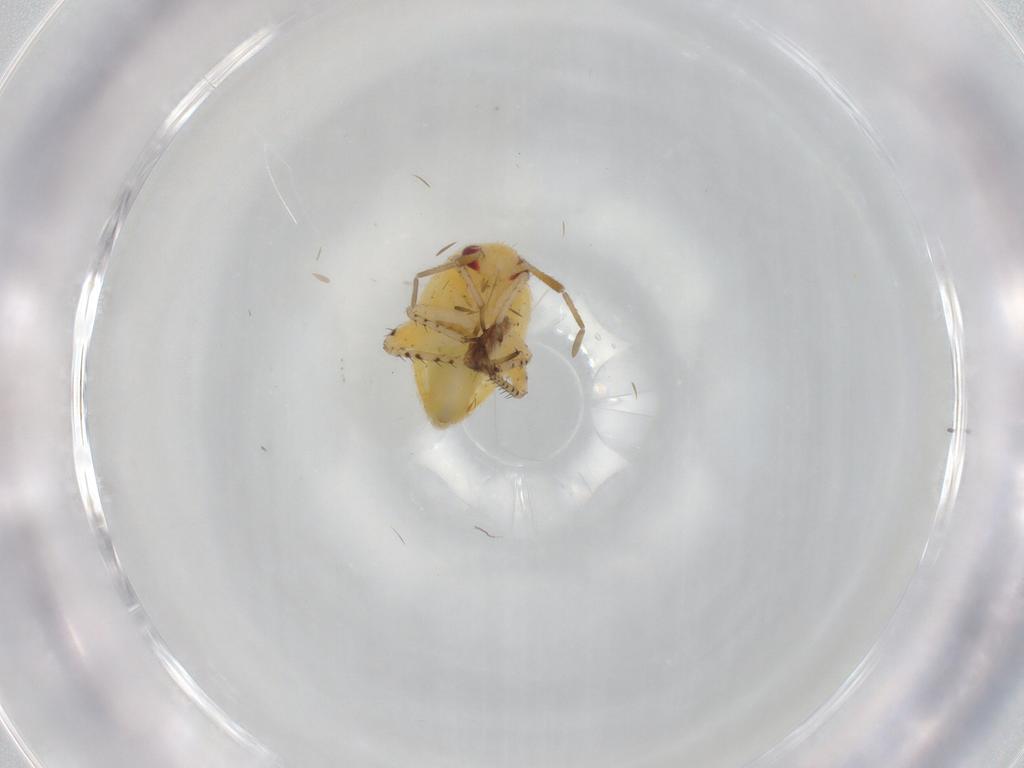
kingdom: Animalia
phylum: Arthropoda
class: Insecta
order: Hemiptera
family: Miridae
